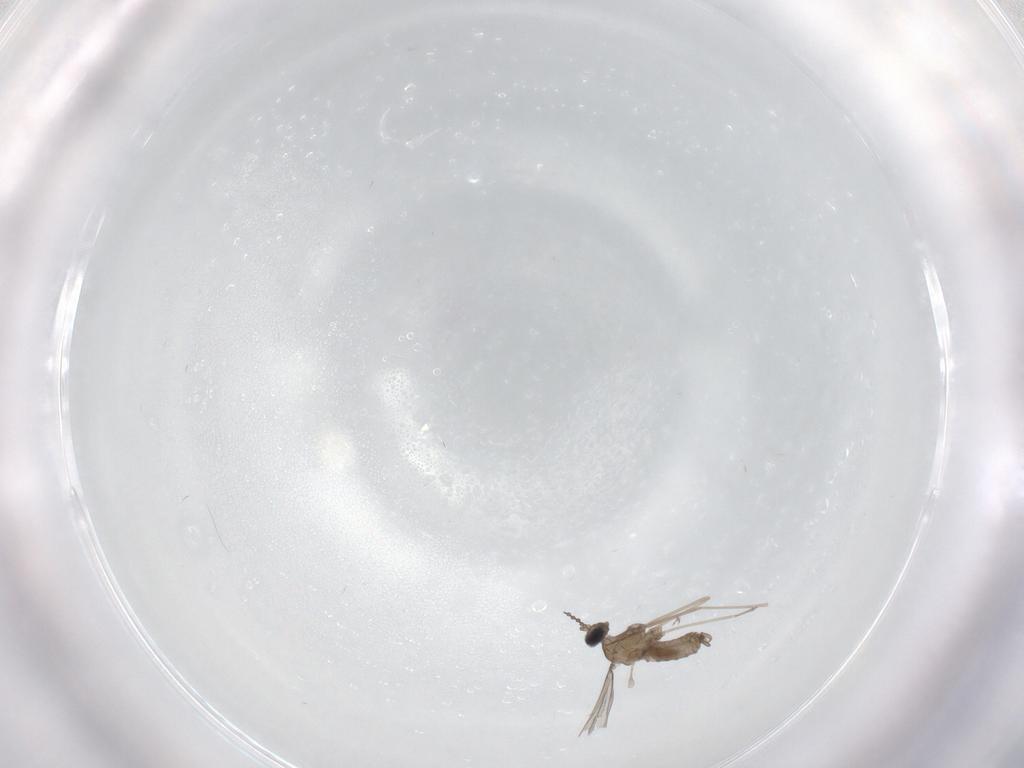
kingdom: Animalia
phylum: Arthropoda
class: Insecta
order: Diptera
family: Cecidomyiidae
